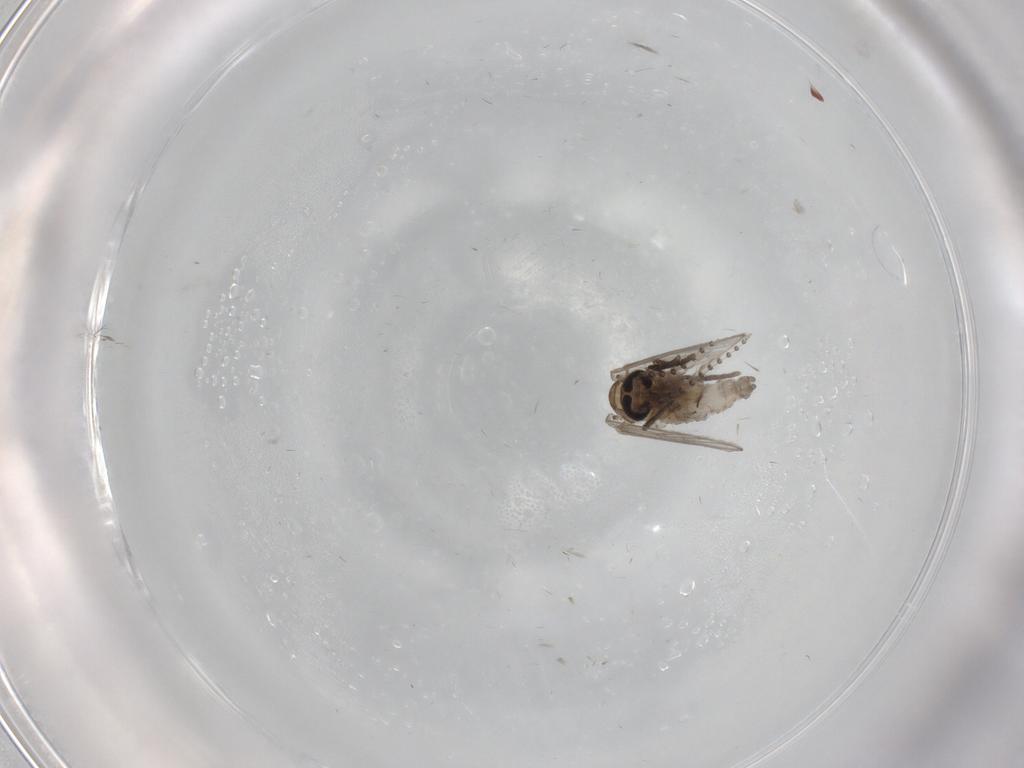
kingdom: Animalia
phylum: Arthropoda
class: Insecta
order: Diptera
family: Psychodidae
